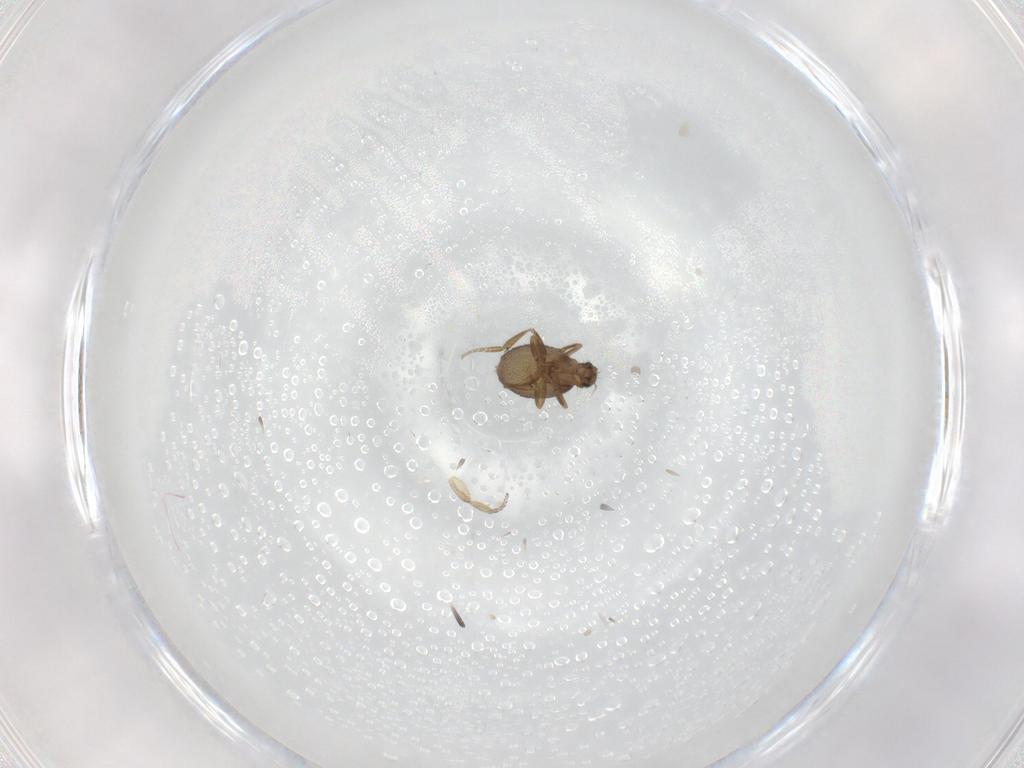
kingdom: Animalia
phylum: Arthropoda
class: Insecta
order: Diptera
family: Phoridae
